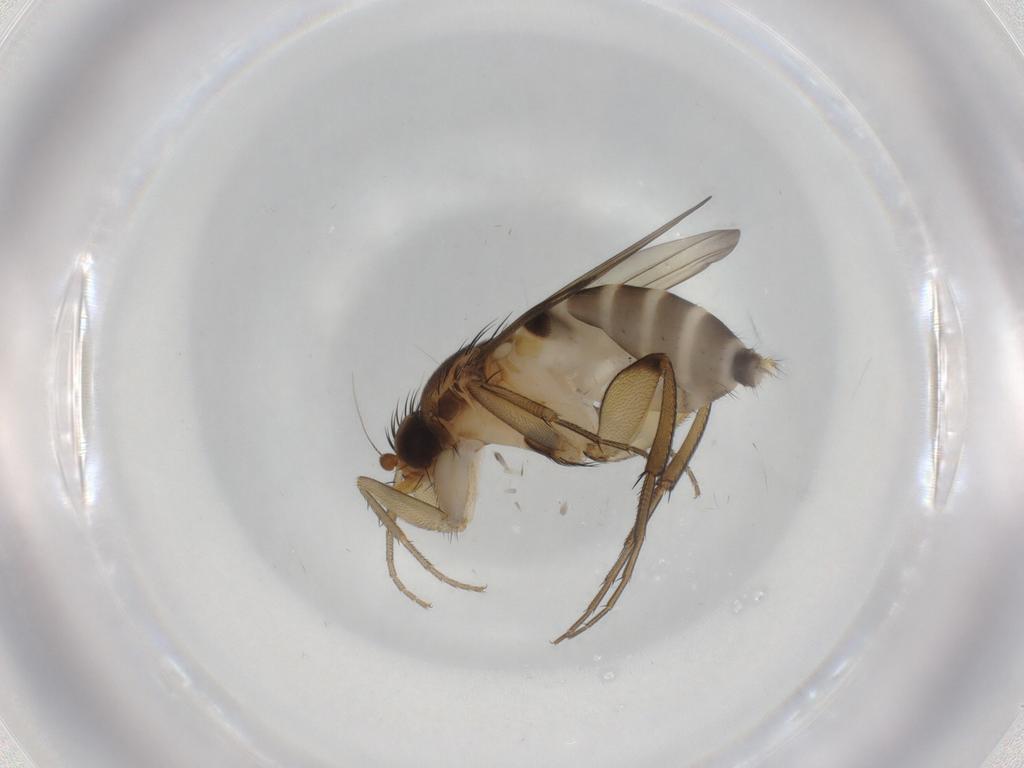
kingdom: Animalia
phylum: Arthropoda
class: Insecta
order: Diptera
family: Phoridae
